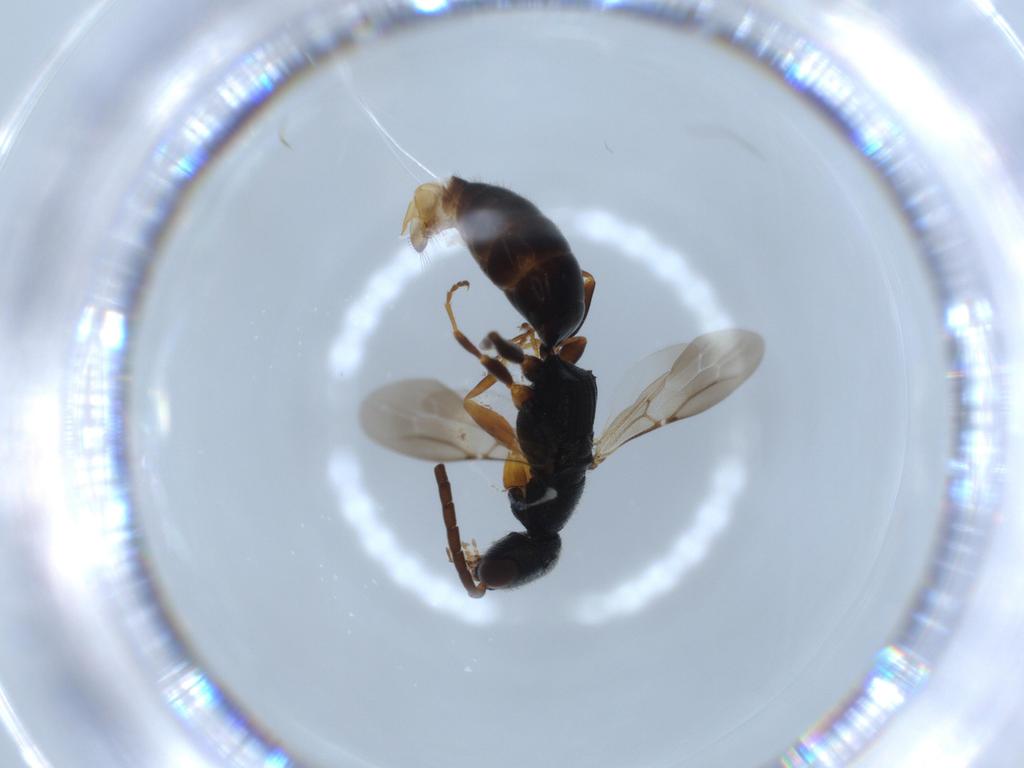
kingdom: Animalia
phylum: Arthropoda
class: Insecta
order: Hymenoptera
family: Bethylidae
